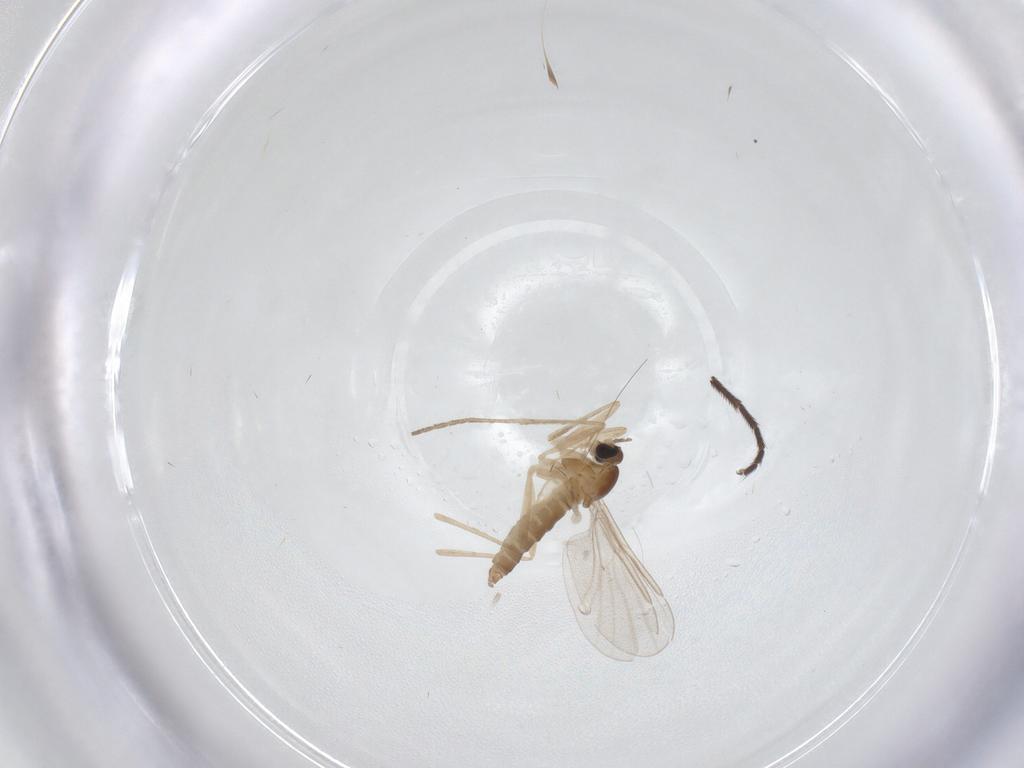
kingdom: Animalia
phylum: Arthropoda
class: Insecta
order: Diptera
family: Cecidomyiidae
